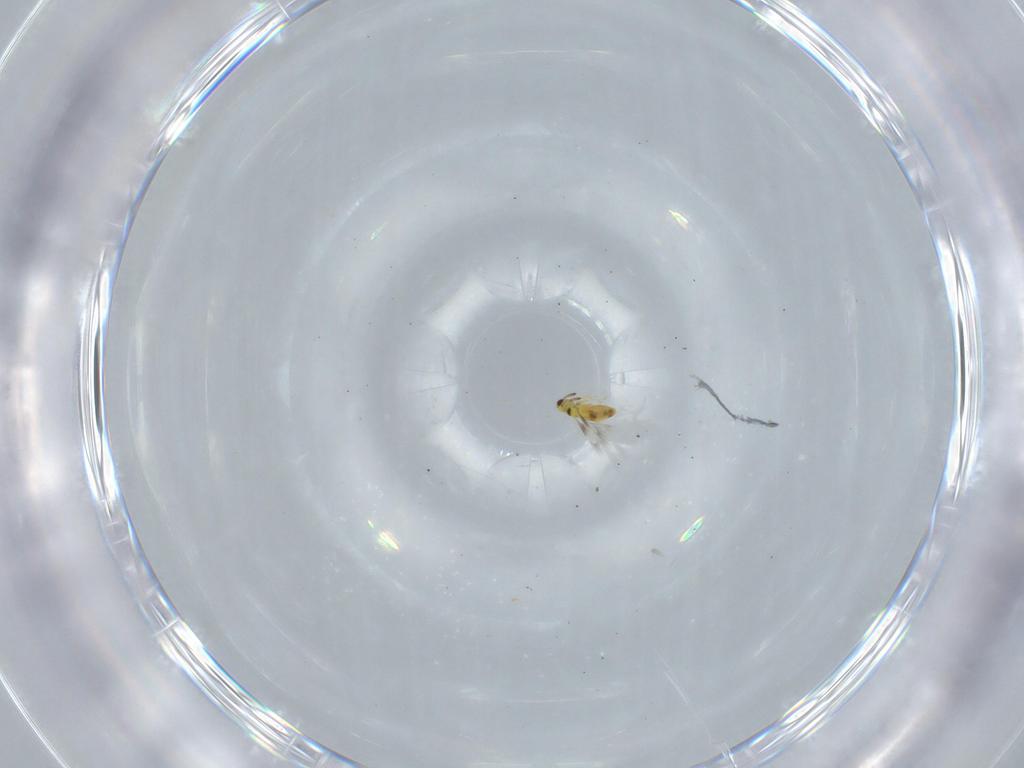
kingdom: Animalia
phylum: Arthropoda
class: Insecta
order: Hymenoptera
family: Signiphoridae
